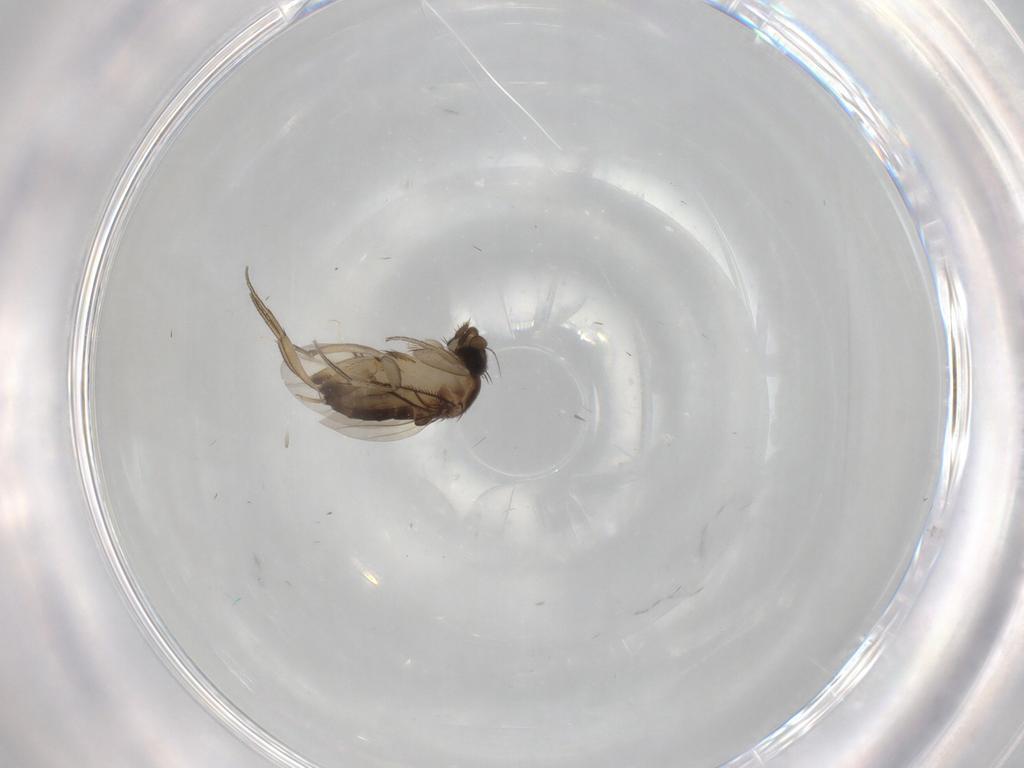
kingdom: Animalia
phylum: Arthropoda
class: Insecta
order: Diptera
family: Phoridae
